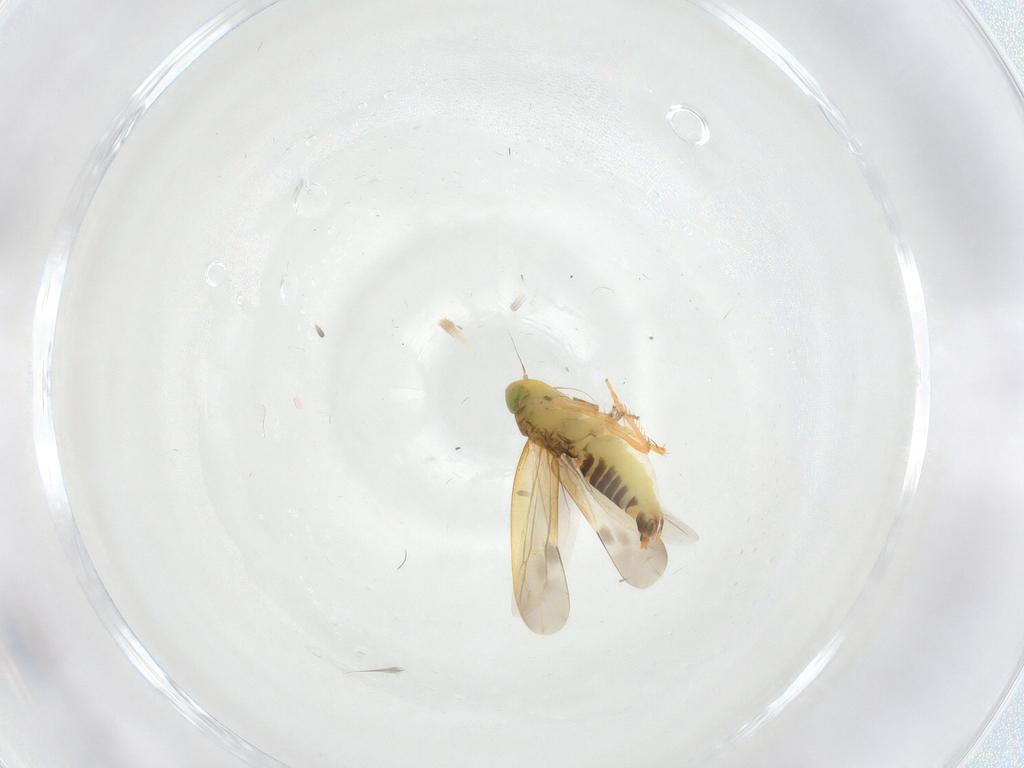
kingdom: Animalia
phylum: Arthropoda
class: Insecta
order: Hemiptera
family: Cicadellidae
